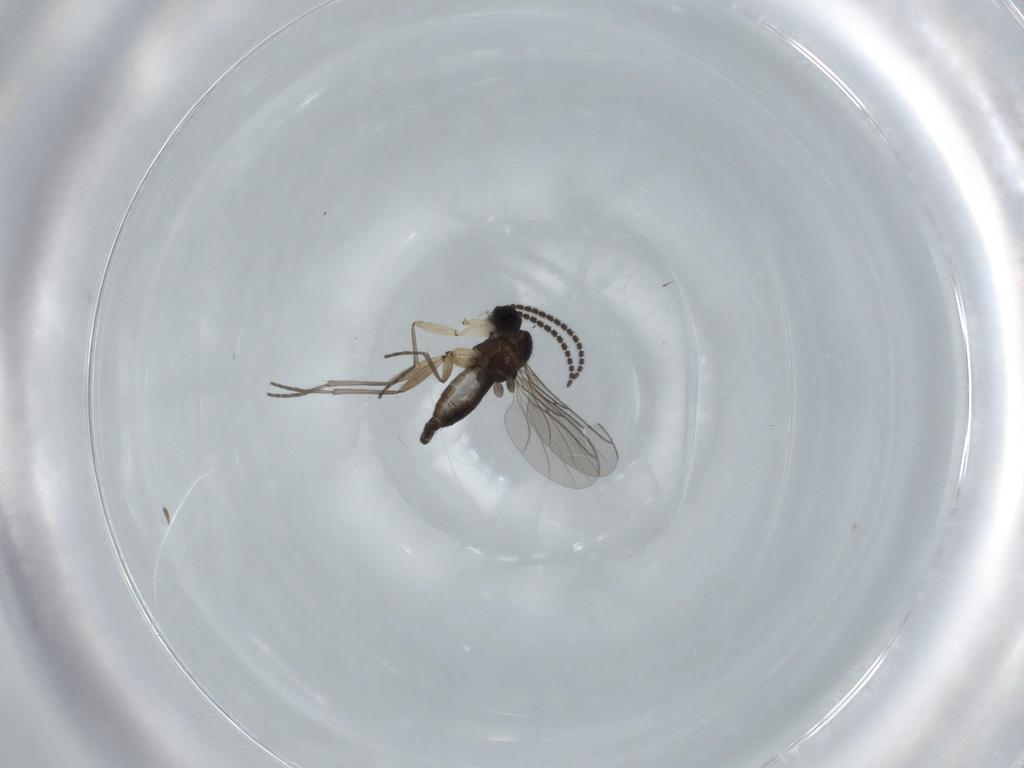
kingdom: Animalia
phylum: Arthropoda
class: Insecta
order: Diptera
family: Sciaridae
